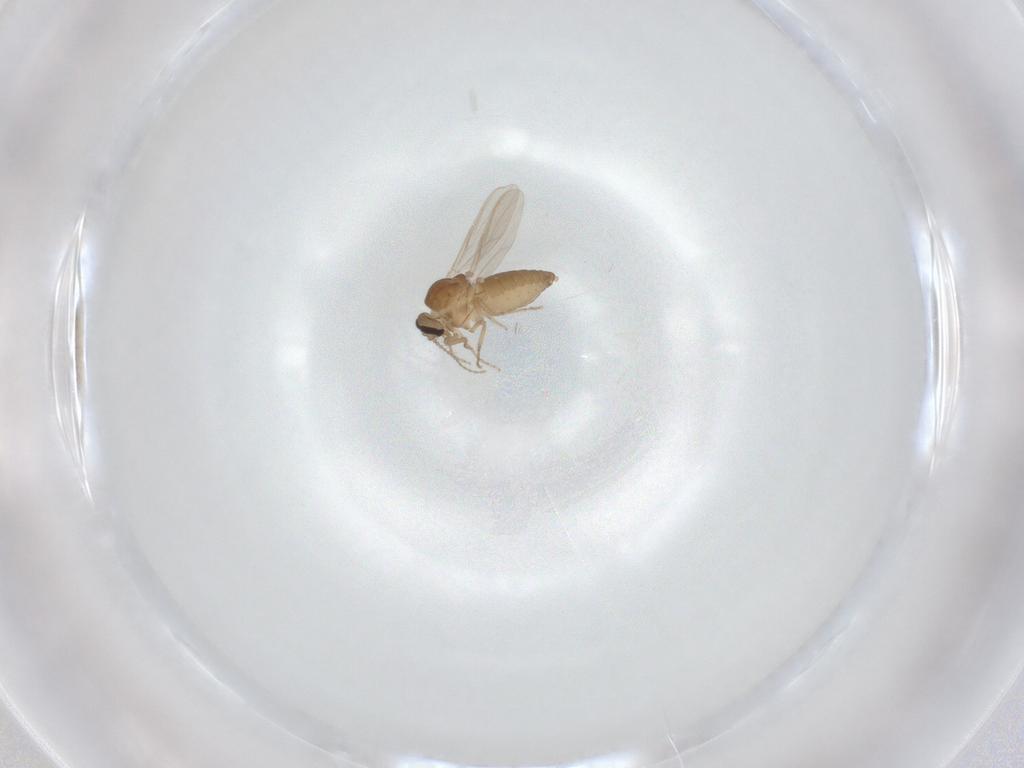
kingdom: Animalia
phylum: Arthropoda
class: Insecta
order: Diptera
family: Ceratopogonidae
